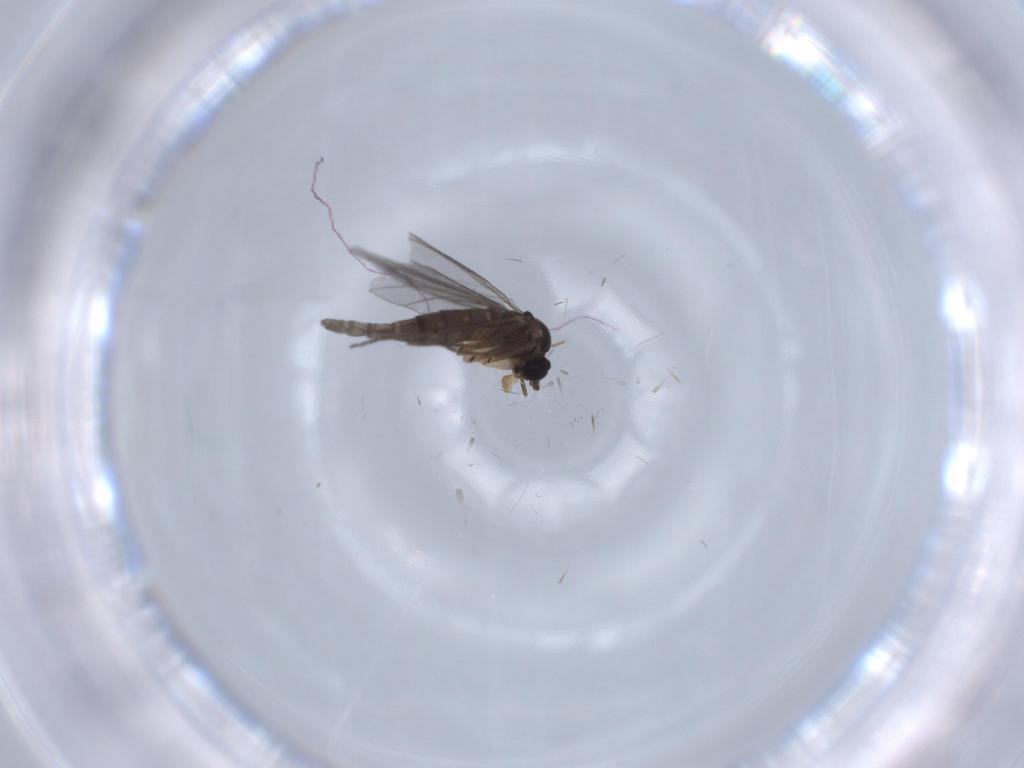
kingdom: Animalia
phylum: Arthropoda
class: Insecta
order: Diptera
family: Sciaridae
